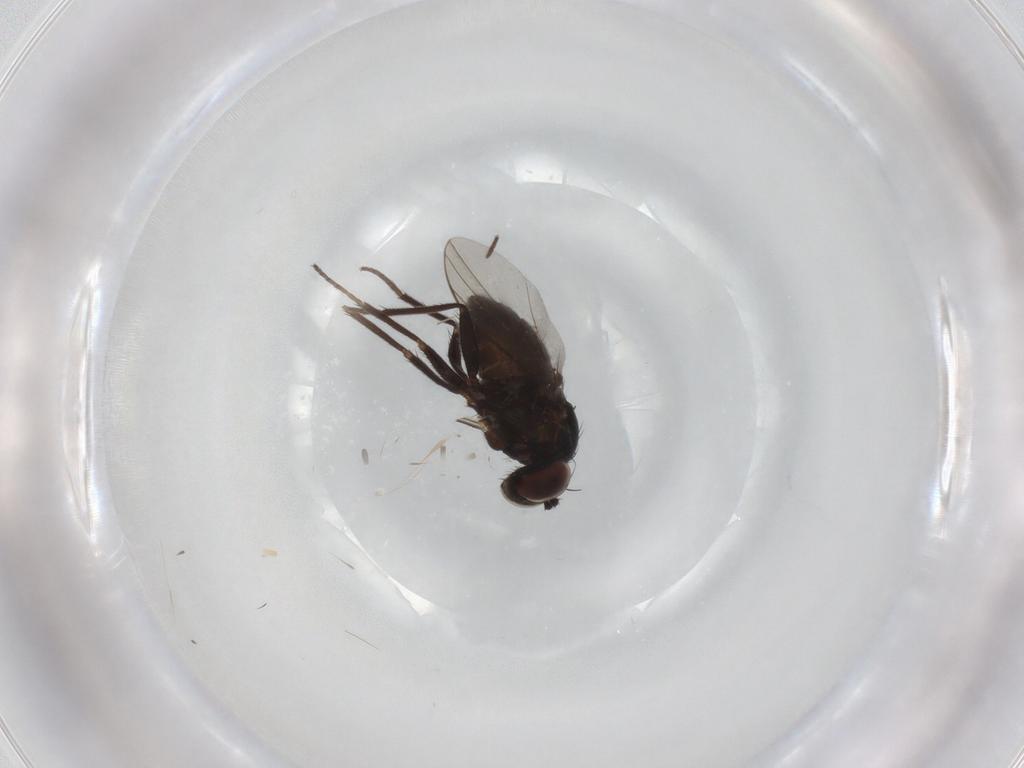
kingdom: Animalia
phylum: Arthropoda
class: Insecta
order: Diptera
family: Dolichopodidae
